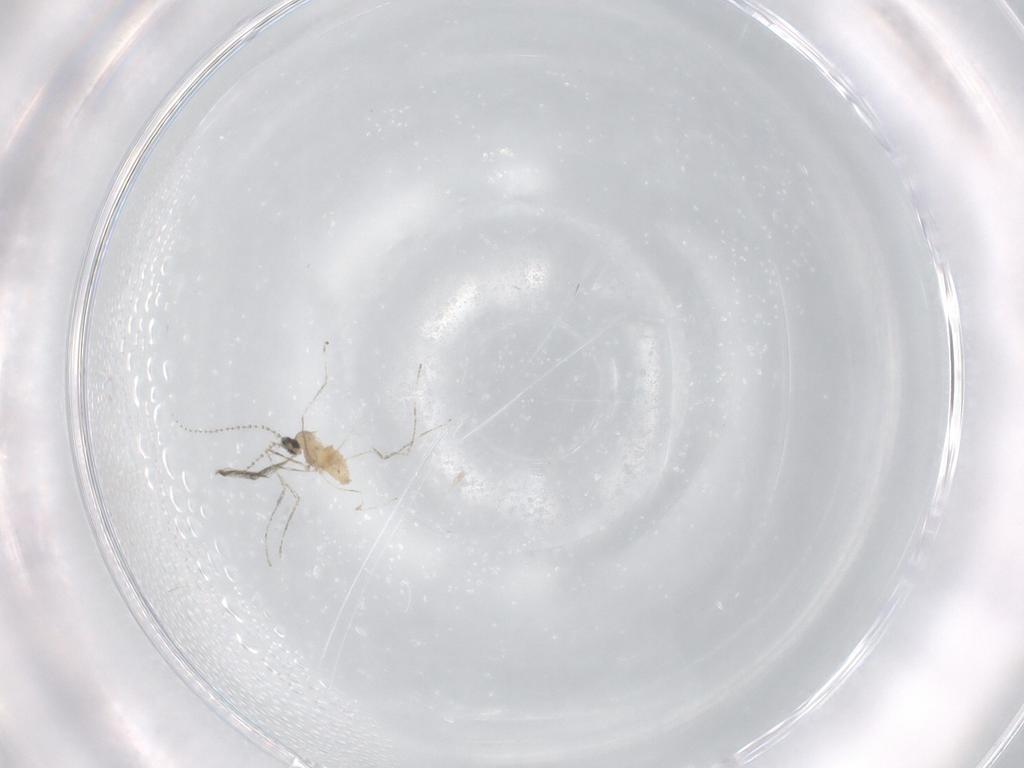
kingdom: Animalia
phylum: Arthropoda
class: Insecta
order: Diptera
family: Cecidomyiidae
